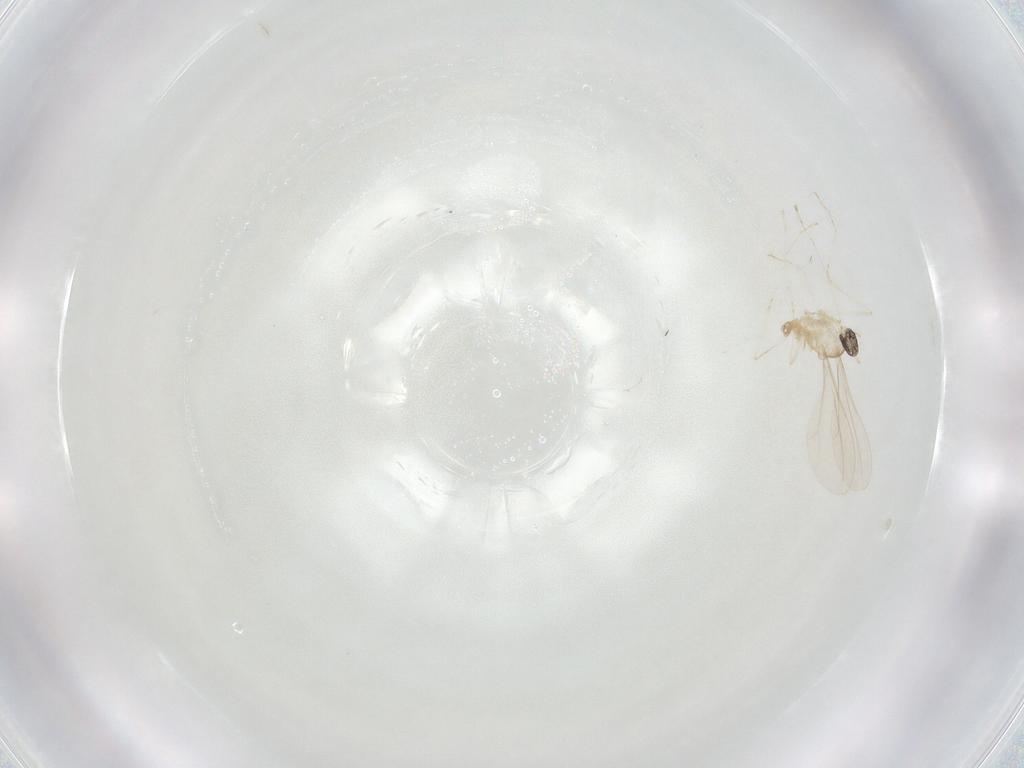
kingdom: Animalia
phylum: Arthropoda
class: Insecta
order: Diptera
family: Cecidomyiidae
